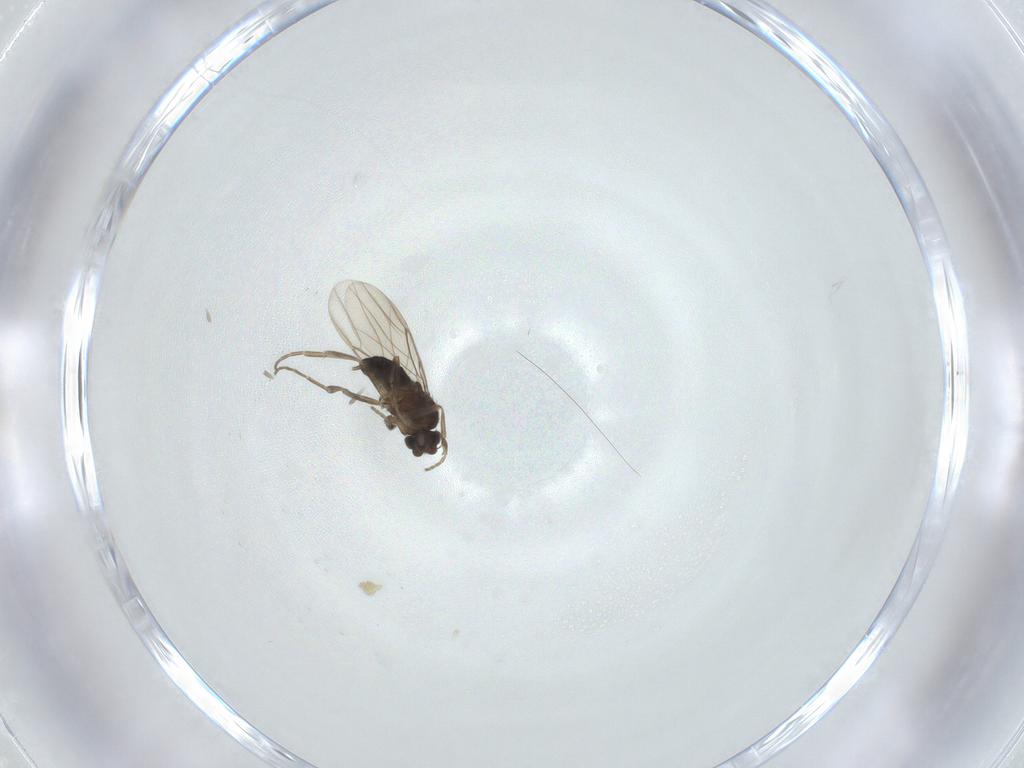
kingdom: Animalia
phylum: Arthropoda
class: Insecta
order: Diptera
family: Phoridae
